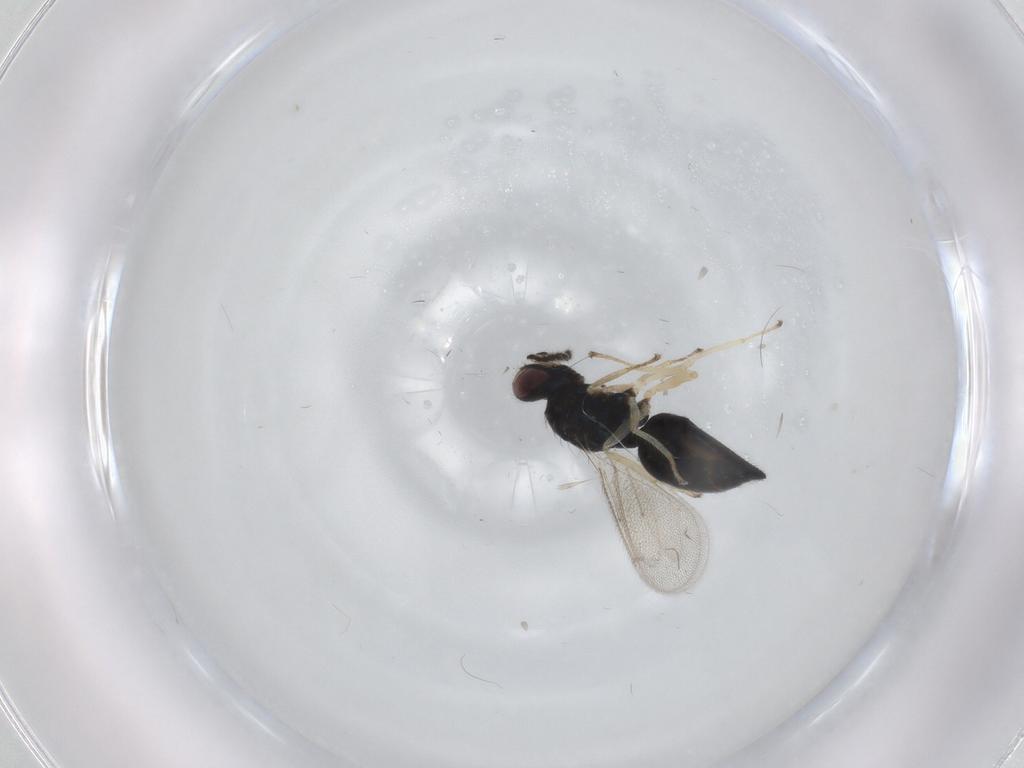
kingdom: Animalia
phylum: Arthropoda
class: Insecta
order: Hymenoptera
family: Eulophidae
